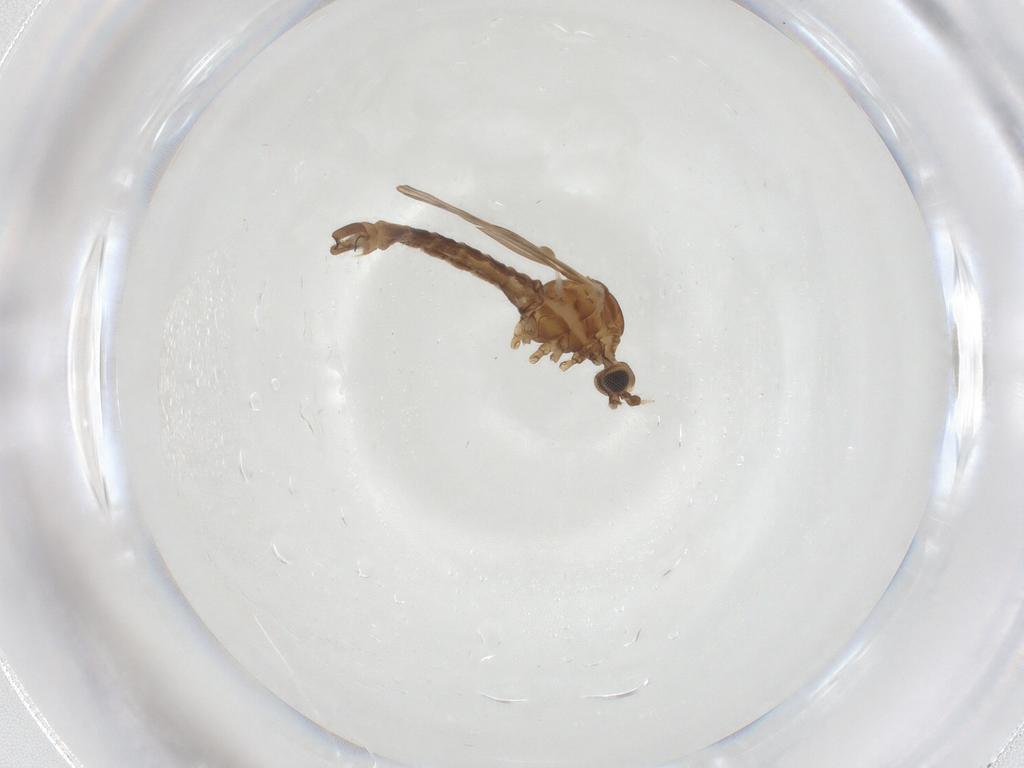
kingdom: Animalia
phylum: Arthropoda
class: Insecta
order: Diptera
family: Limoniidae
